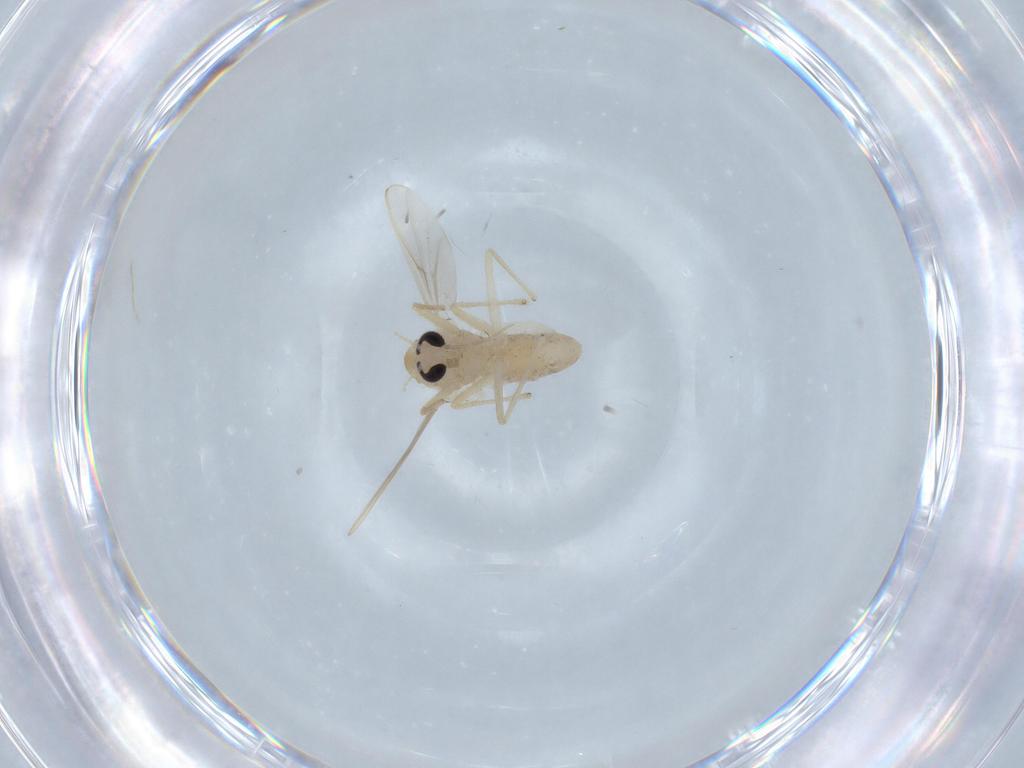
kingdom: Animalia
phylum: Arthropoda
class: Insecta
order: Diptera
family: Chironomidae
